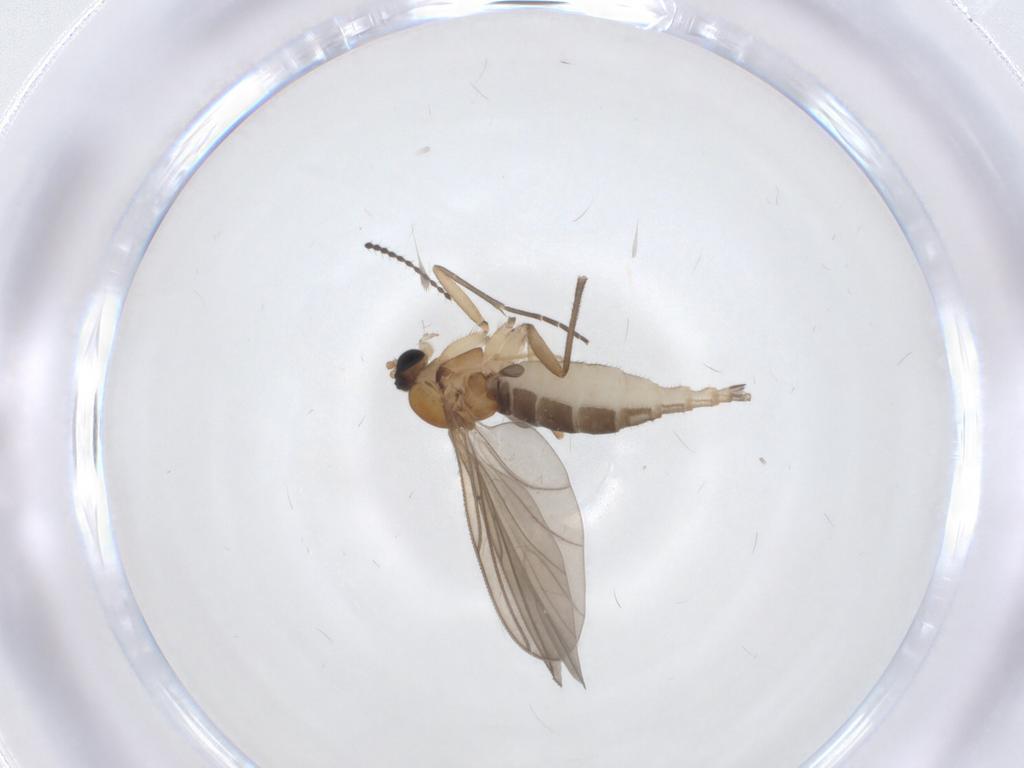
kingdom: Animalia
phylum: Arthropoda
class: Insecta
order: Diptera
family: Sciaridae
